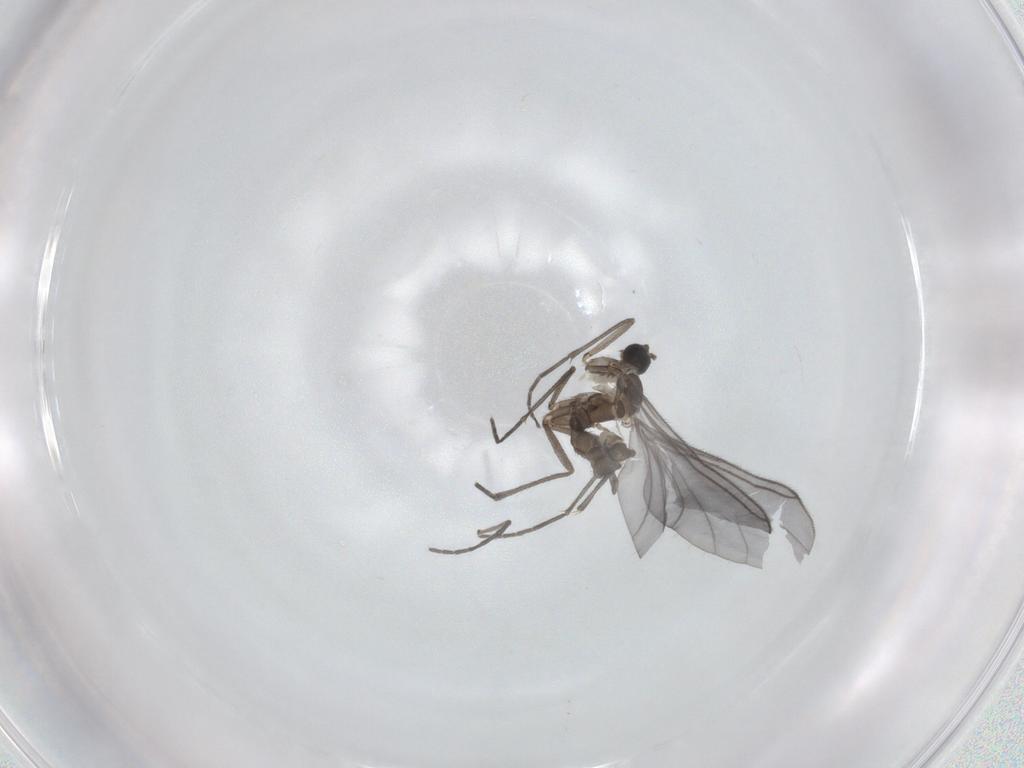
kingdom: Animalia
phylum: Arthropoda
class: Insecta
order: Diptera
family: Sciaridae
